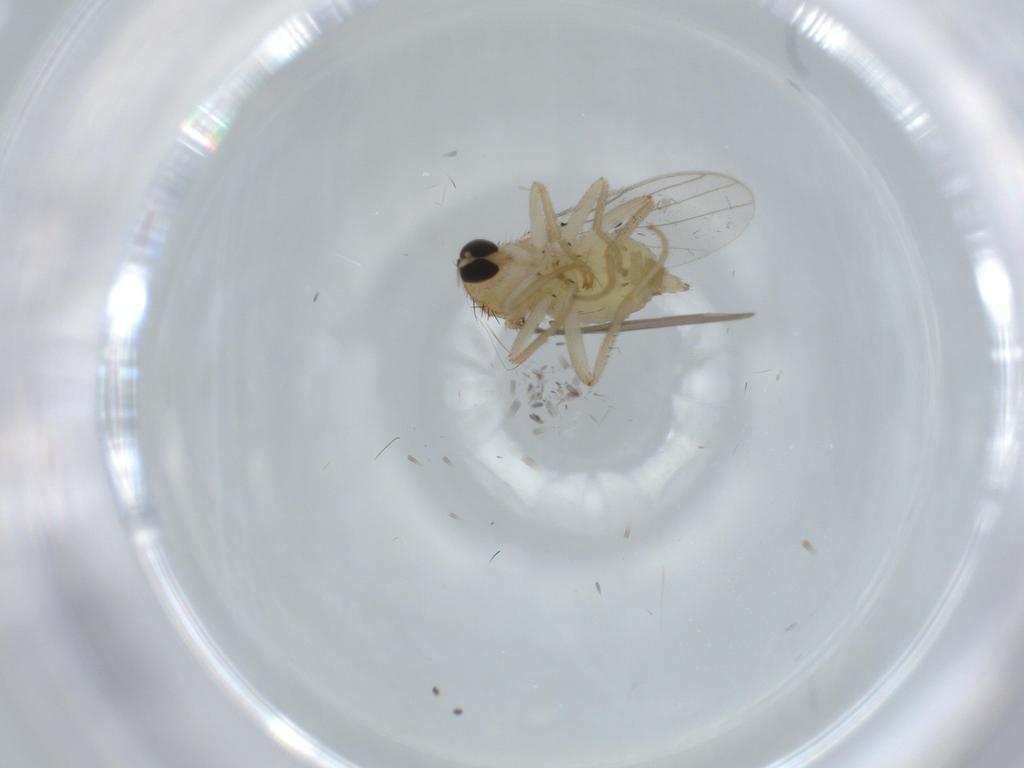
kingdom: Animalia
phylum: Arthropoda
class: Insecta
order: Diptera
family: Hybotidae
